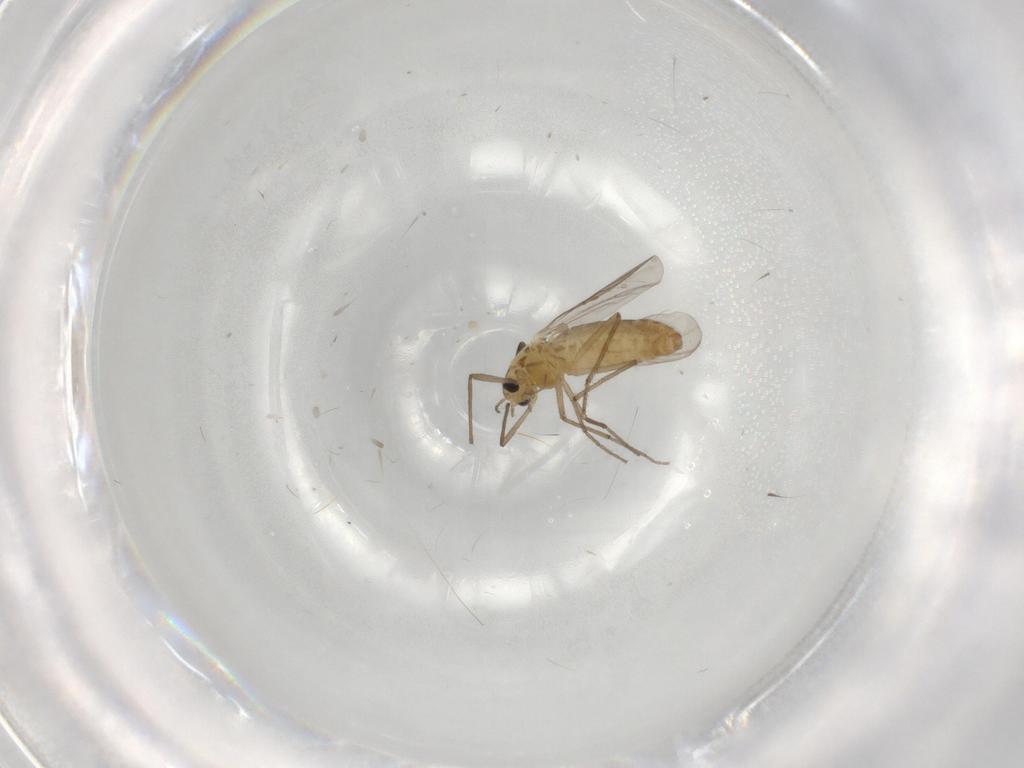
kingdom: Animalia
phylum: Arthropoda
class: Insecta
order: Diptera
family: Chironomidae
